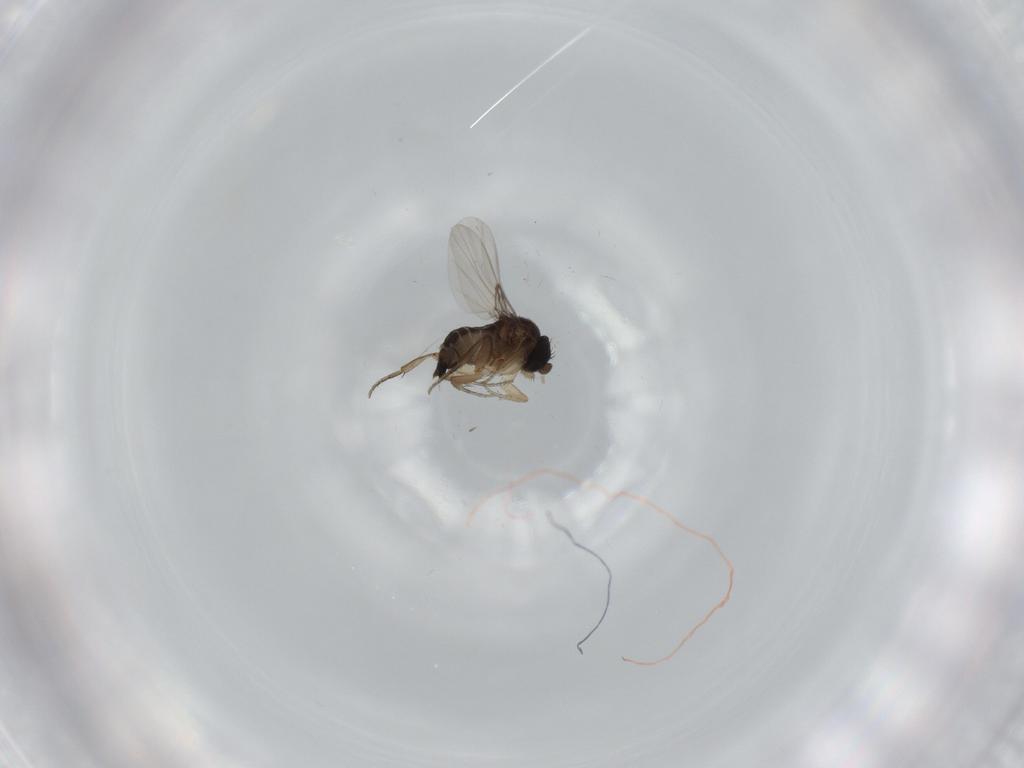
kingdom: Animalia
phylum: Arthropoda
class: Insecta
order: Diptera
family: Phoridae
